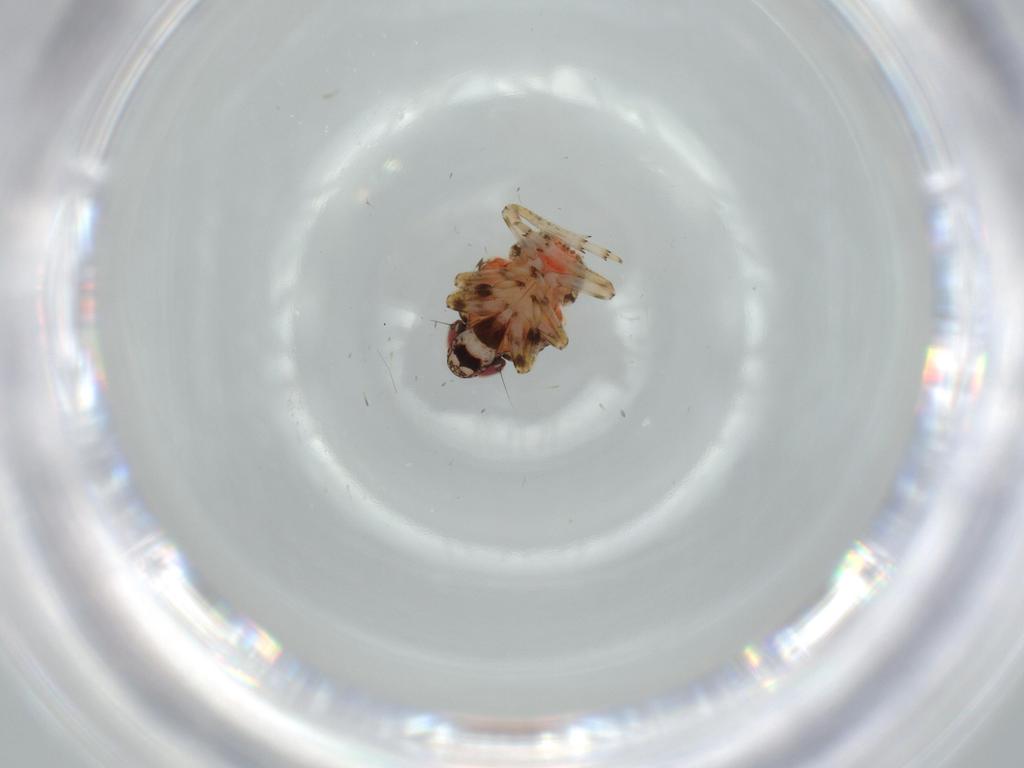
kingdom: Animalia
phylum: Arthropoda
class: Insecta
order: Hemiptera
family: Issidae
